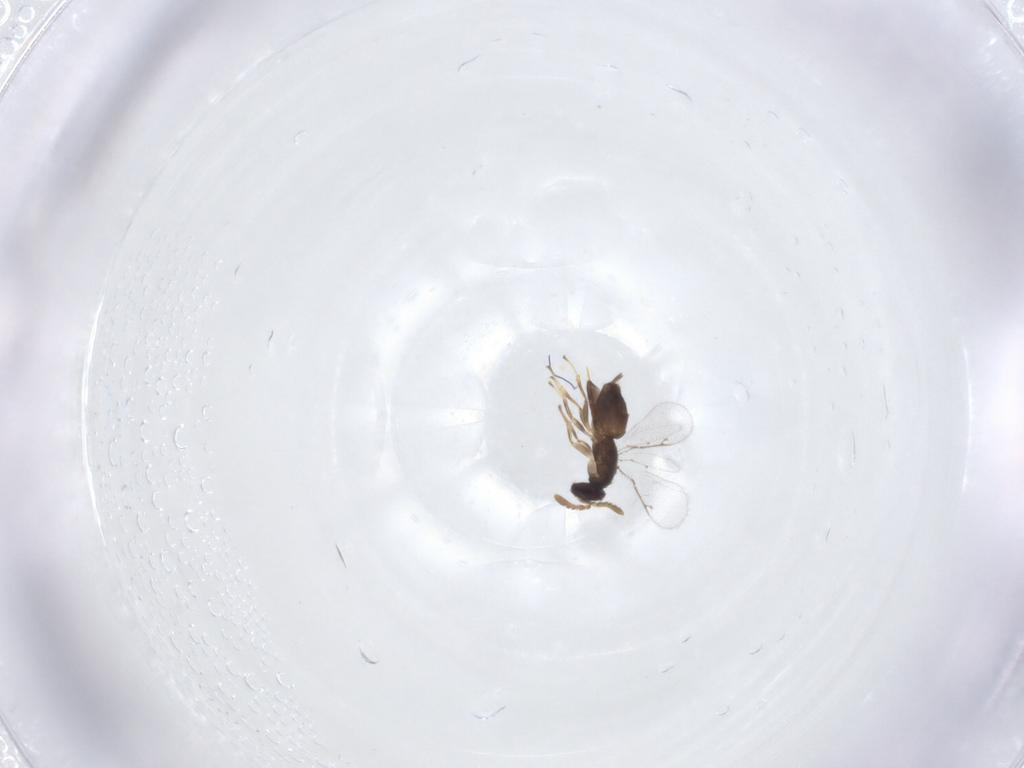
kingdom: Animalia
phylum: Arthropoda
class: Insecta
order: Hymenoptera
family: Pirenidae
